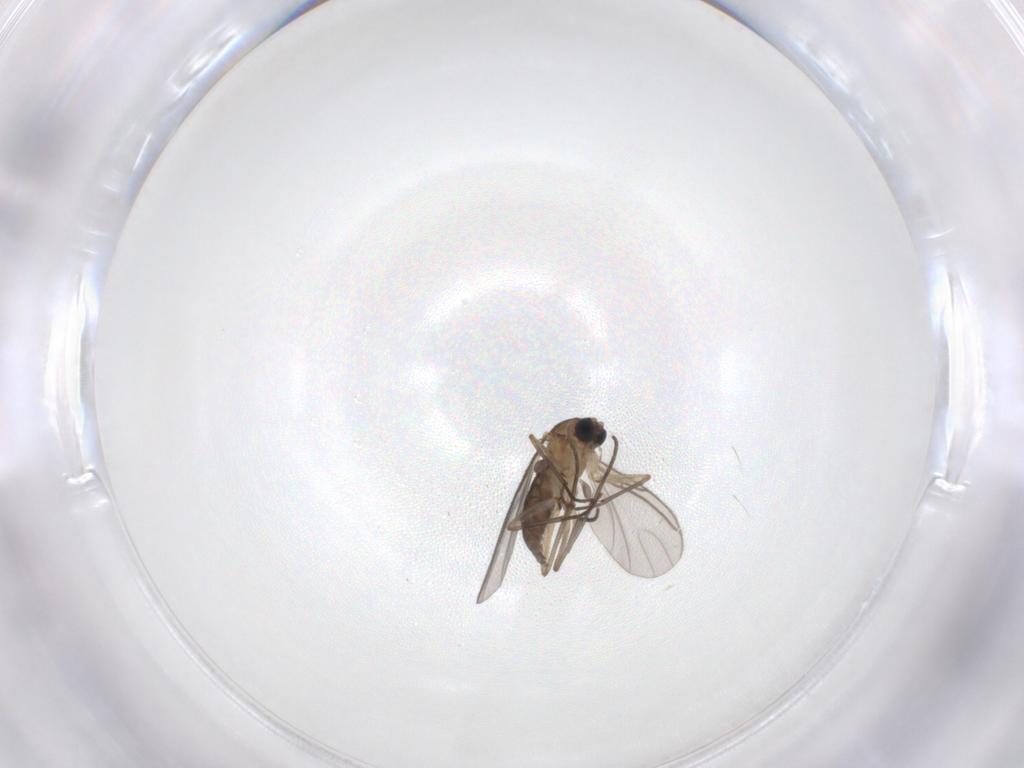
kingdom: Animalia
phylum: Arthropoda
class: Insecta
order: Diptera
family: Sciaridae
